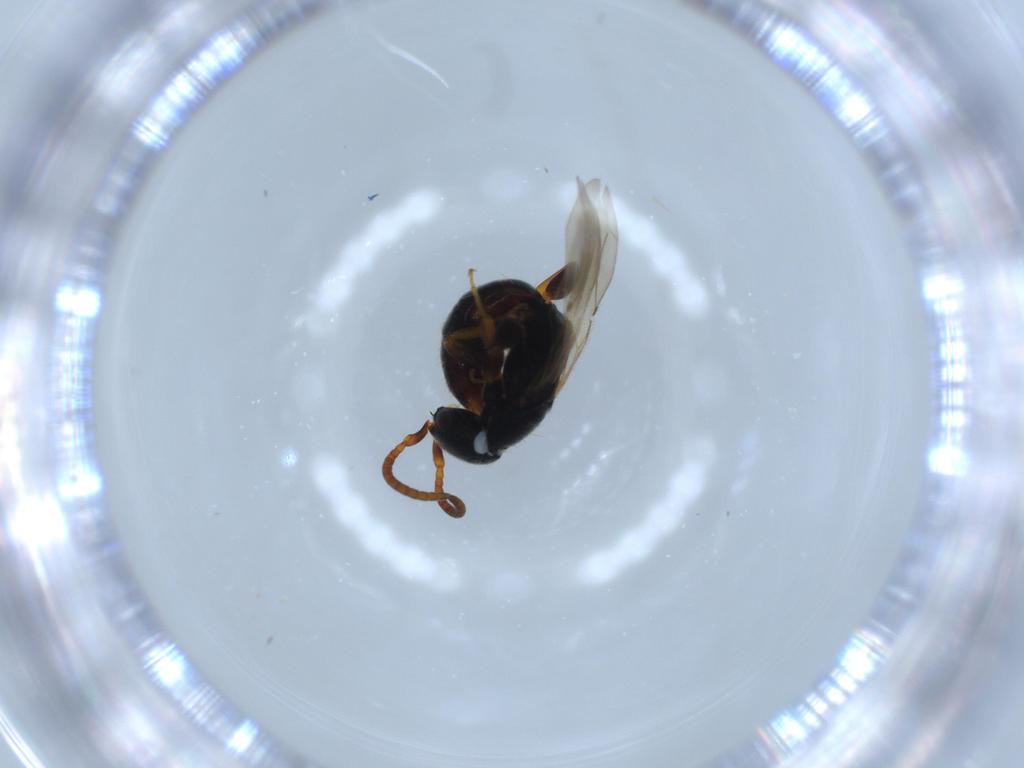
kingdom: Animalia
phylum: Arthropoda
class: Insecta
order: Hymenoptera
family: Bethylidae
